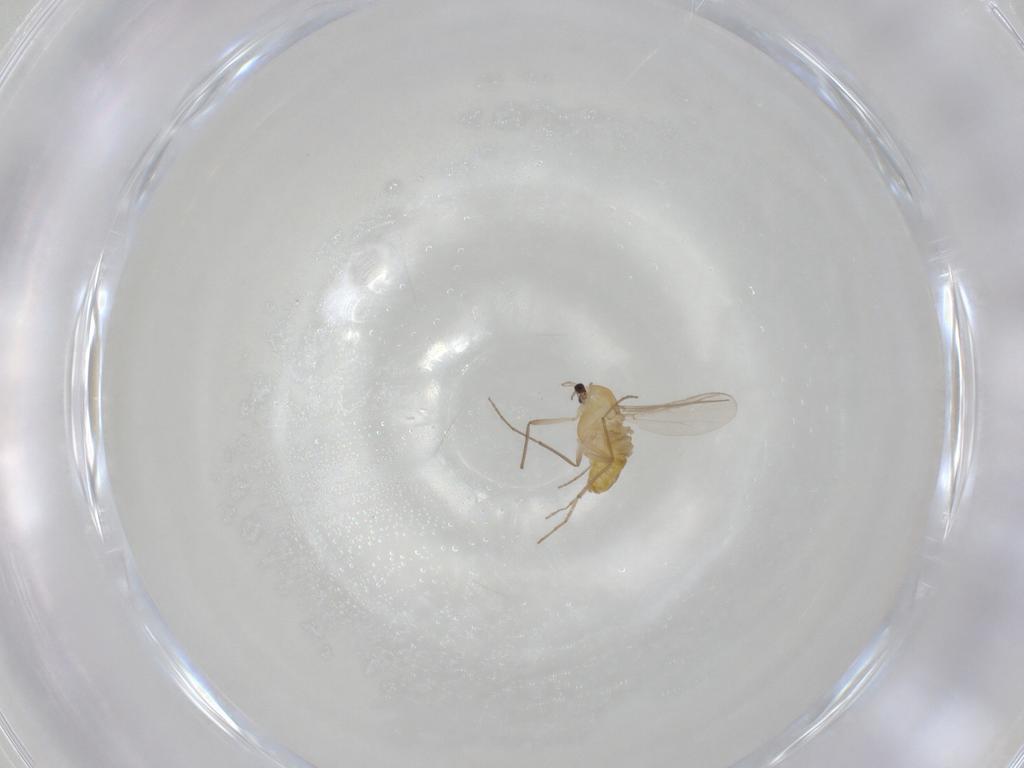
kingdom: Animalia
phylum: Arthropoda
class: Insecta
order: Diptera
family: Chironomidae
